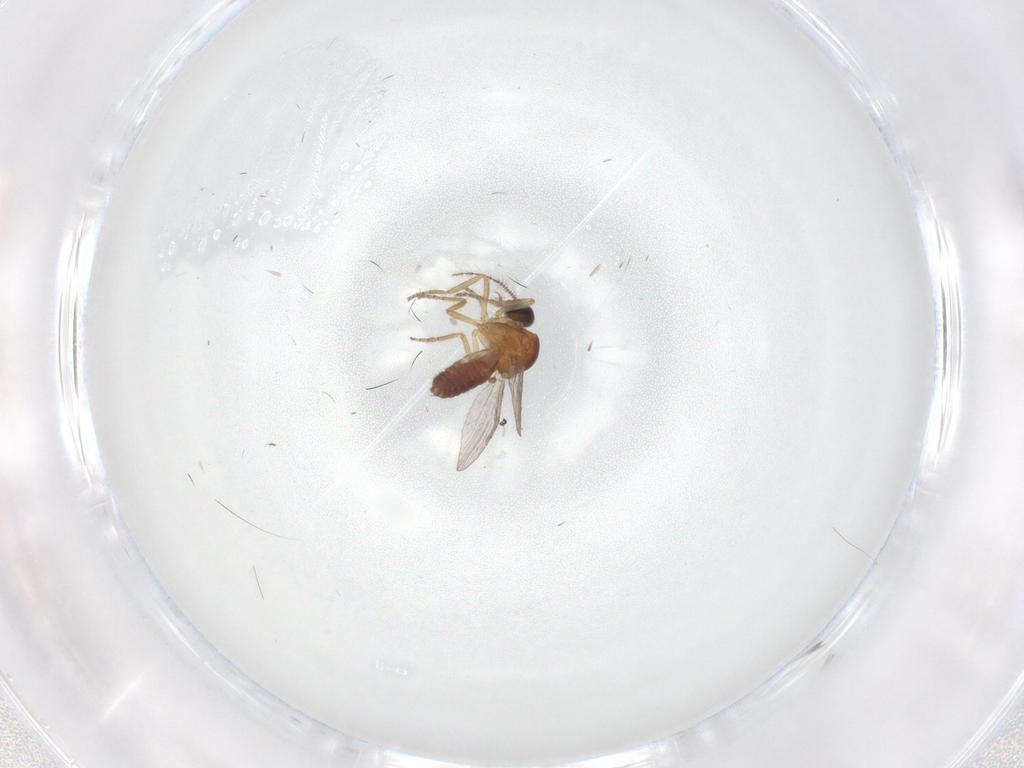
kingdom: Animalia
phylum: Arthropoda
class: Insecta
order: Diptera
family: Ceratopogonidae
